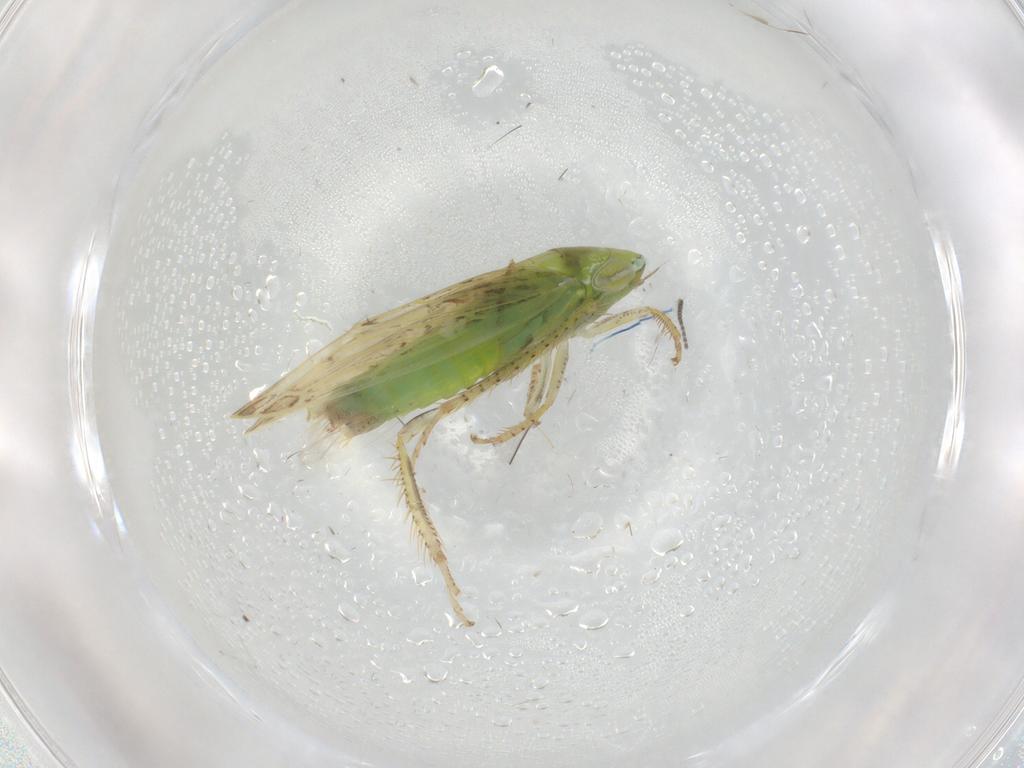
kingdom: Animalia
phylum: Arthropoda
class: Insecta
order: Hemiptera
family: Cicadellidae
